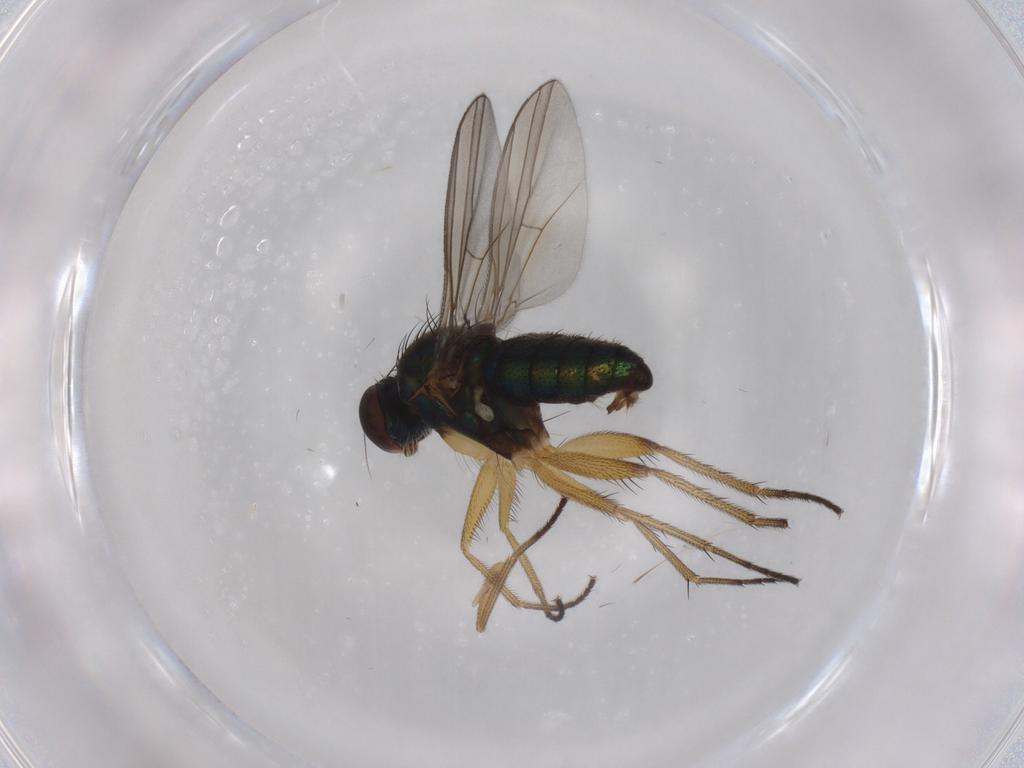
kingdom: Animalia
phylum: Arthropoda
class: Insecta
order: Diptera
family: Dolichopodidae
